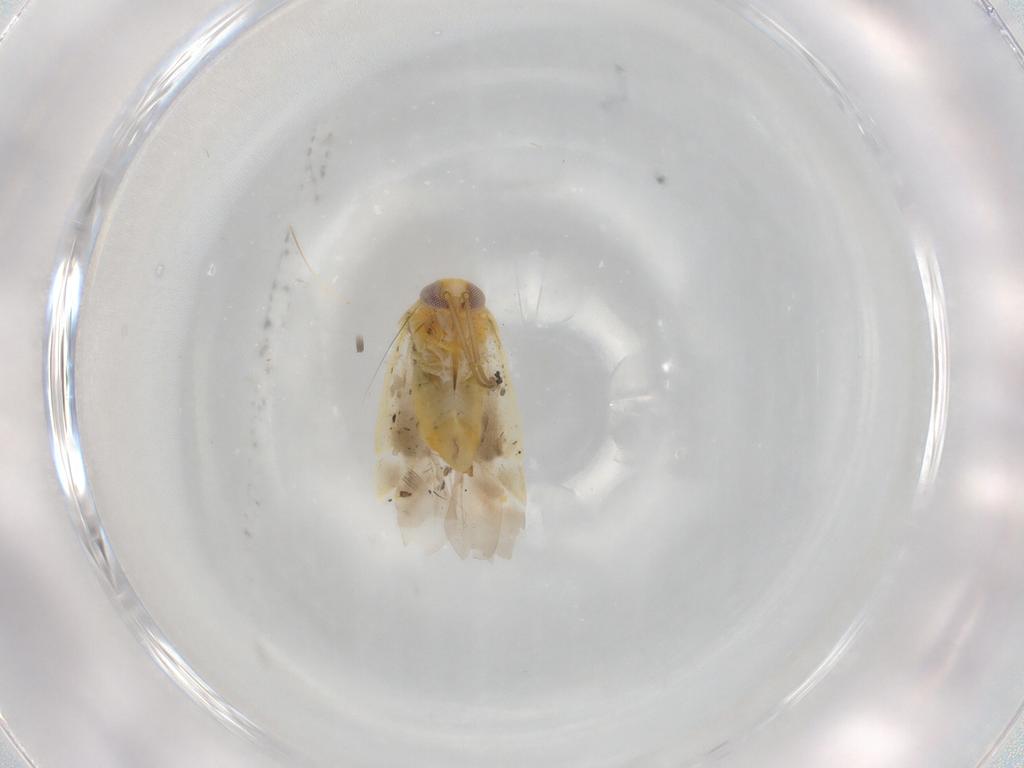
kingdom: Animalia
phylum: Arthropoda
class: Insecta
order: Hemiptera
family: Miridae
